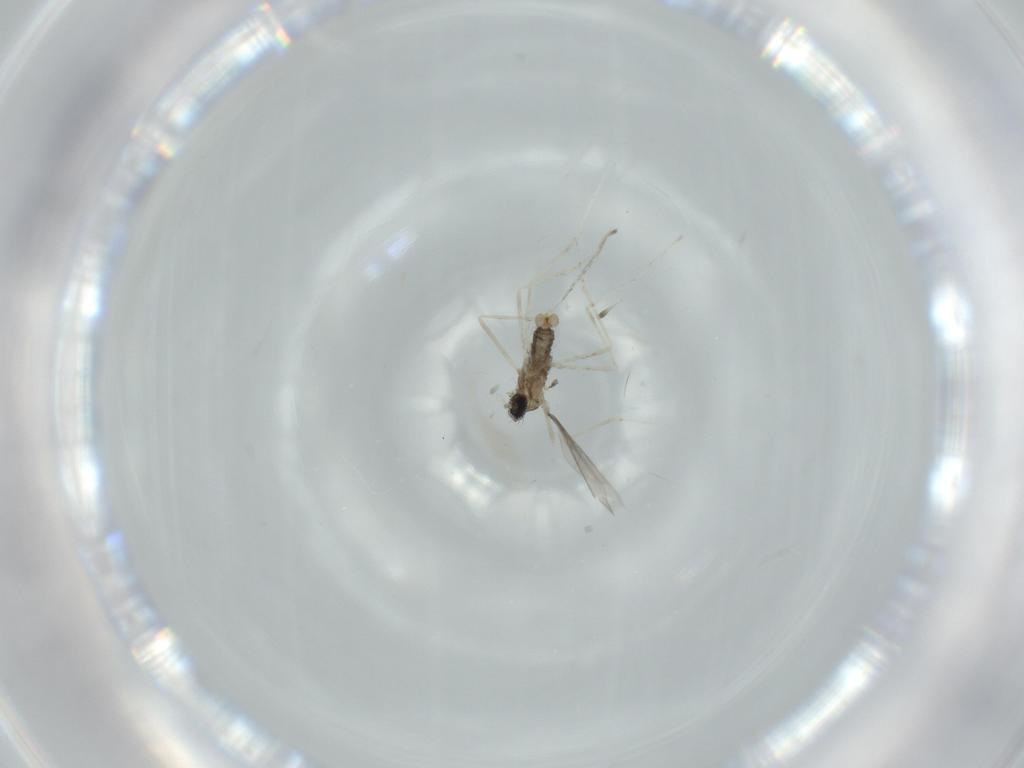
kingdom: Animalia
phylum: Arthropoda
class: Insecta
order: Diptera
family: Cecidomyiidae
